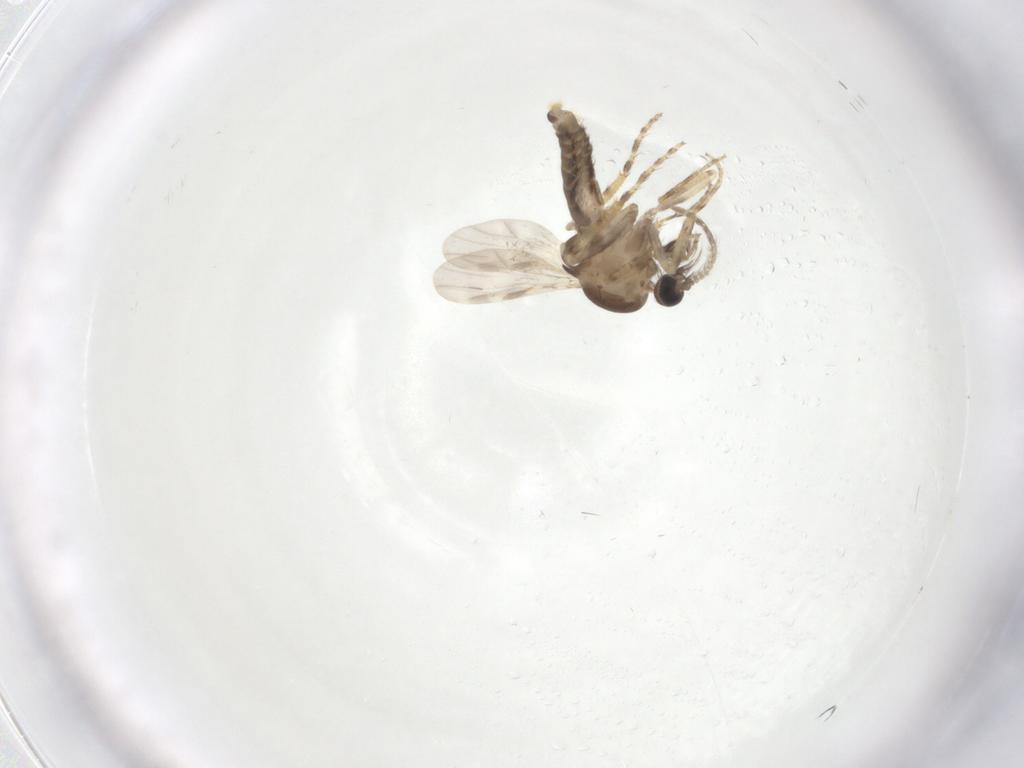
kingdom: Animalia
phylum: Arthropoda
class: Insecta
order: Diptera
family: Ceratopogonidae
